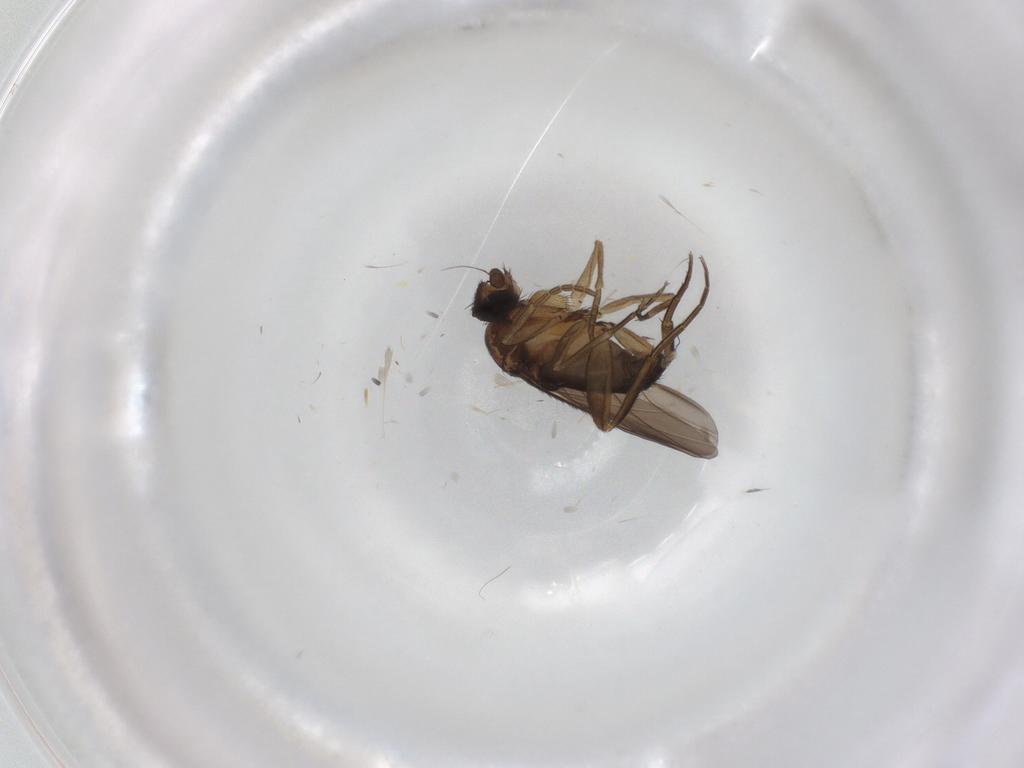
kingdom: Animalia
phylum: Arthropoda
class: Insecta
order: Diptera
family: Phoridae
